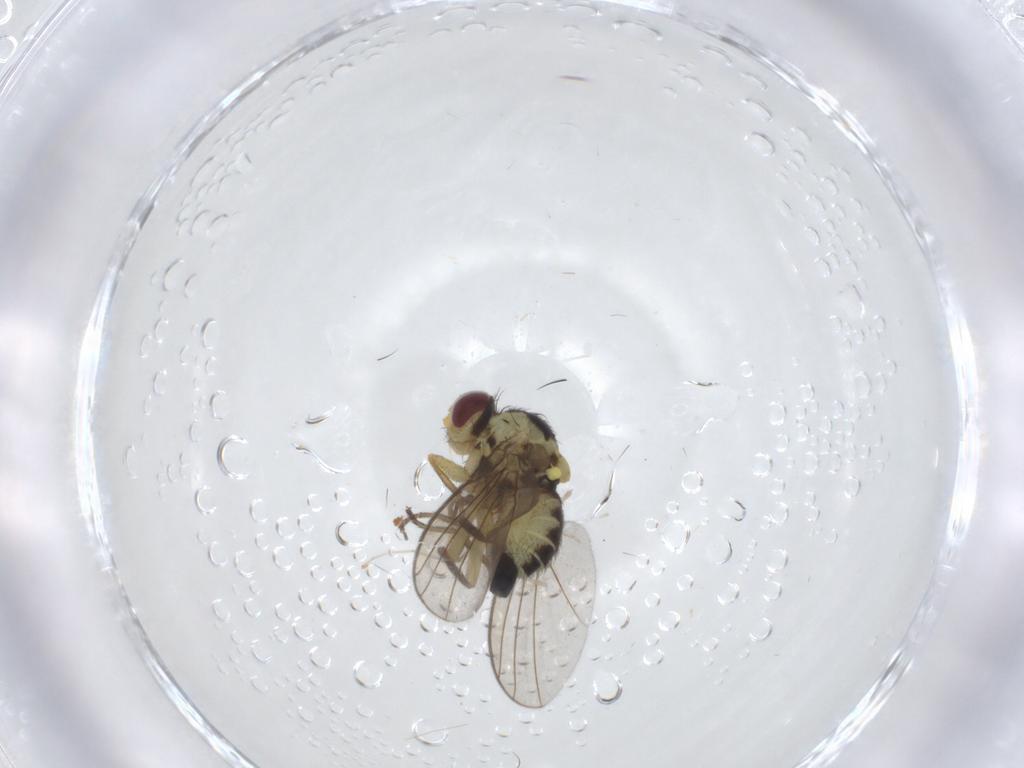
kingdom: Animalia
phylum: Arthropoda
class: Insecta
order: Diptera
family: Agromyzidae
